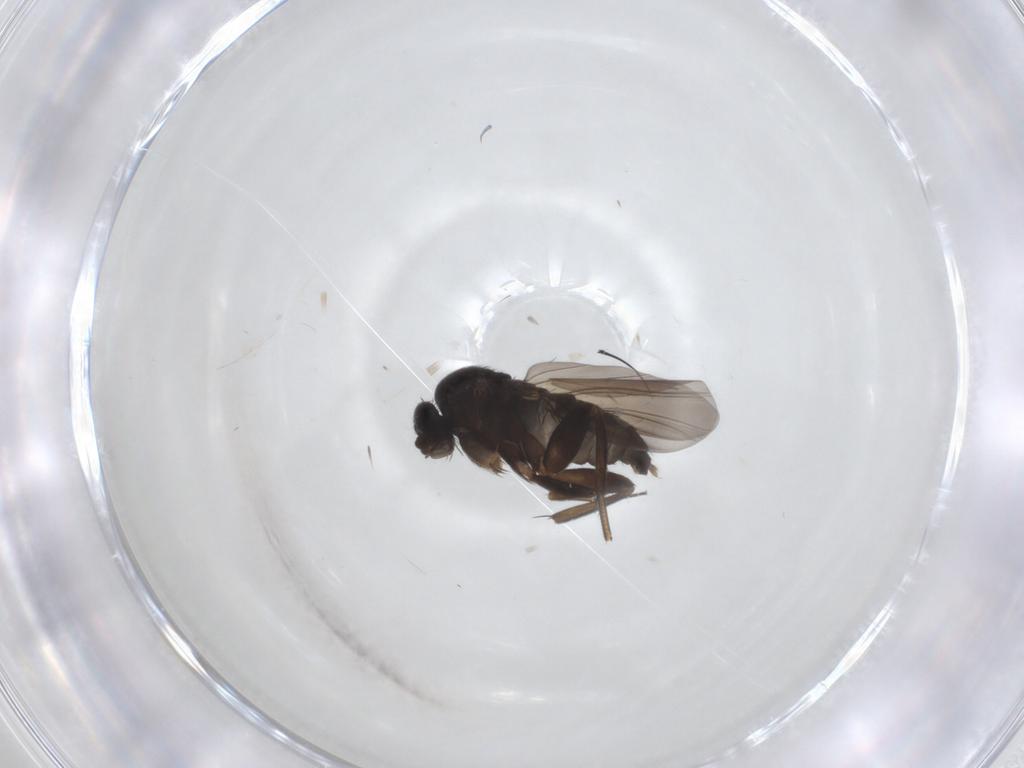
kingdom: Animalia
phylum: Arthropoda
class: Insecta
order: Diptera
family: Phoridae
